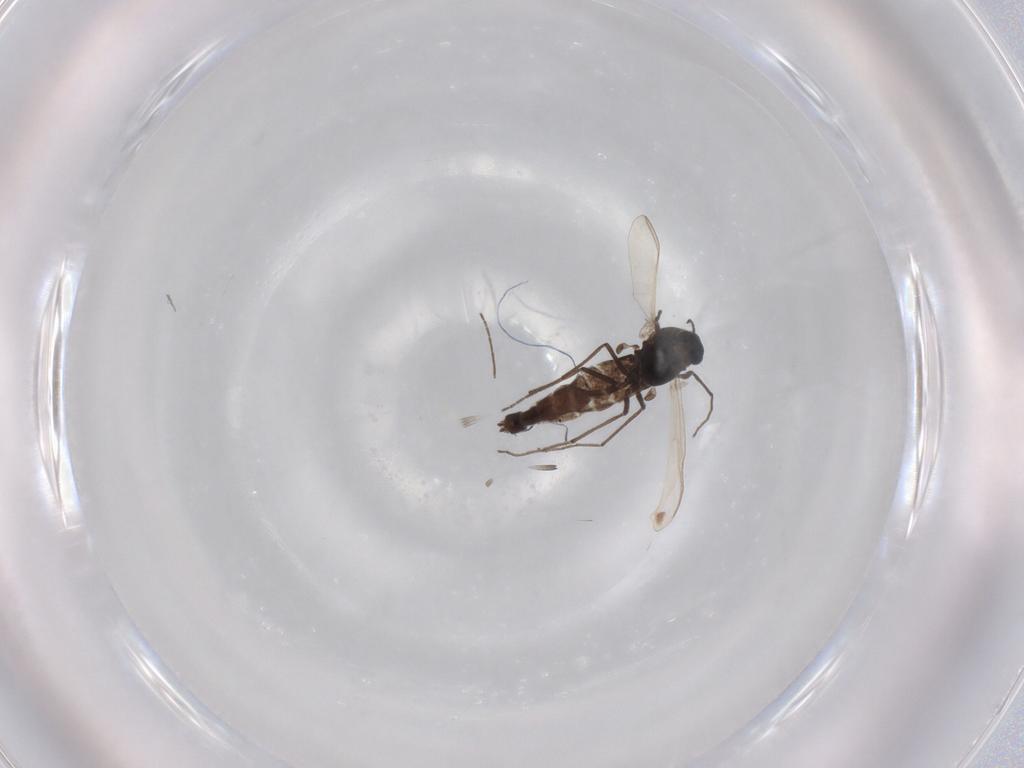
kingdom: Animalia
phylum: Arthropoda
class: Insecta
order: Diptera
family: Chironomidae
